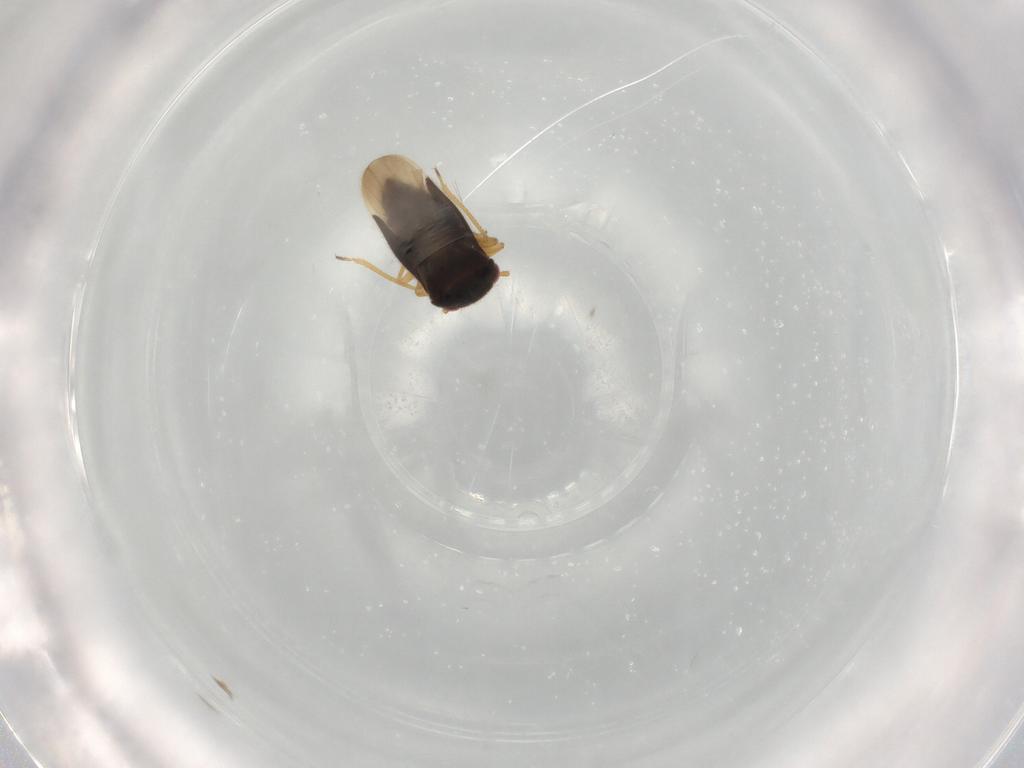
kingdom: Animalia
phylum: Arthropoda
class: Insecta
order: Hemiptera
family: Schizopteridae
